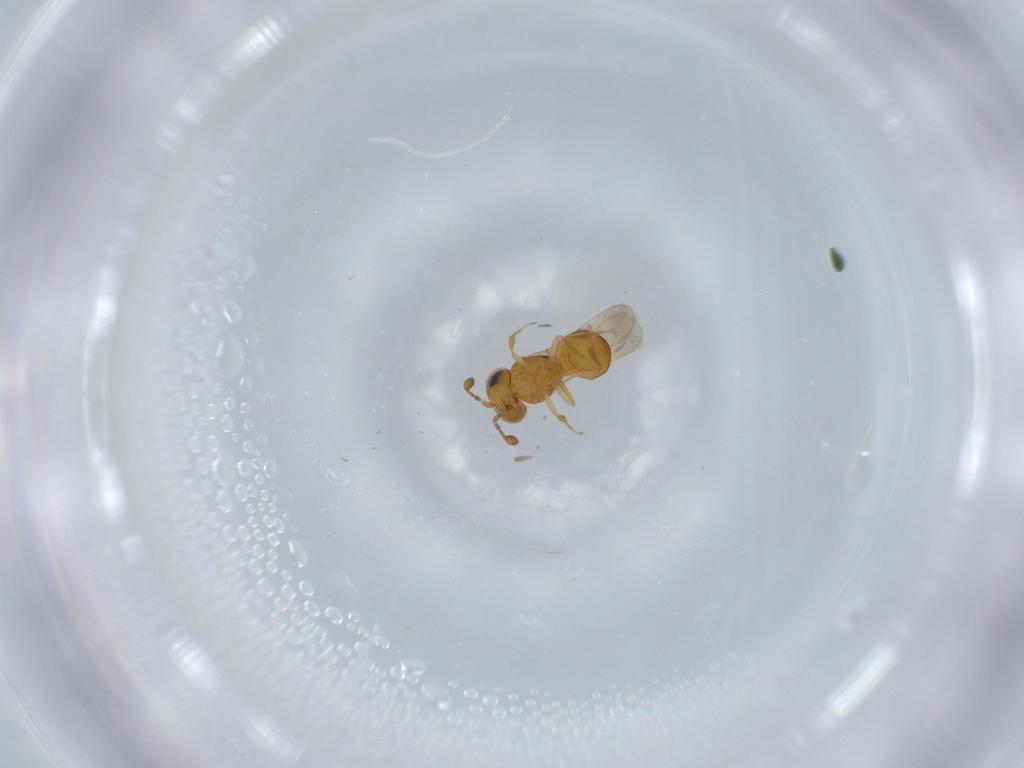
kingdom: Animalia
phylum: Arthropoda
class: Insecta
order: Hymenoptera
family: Scelionidae
